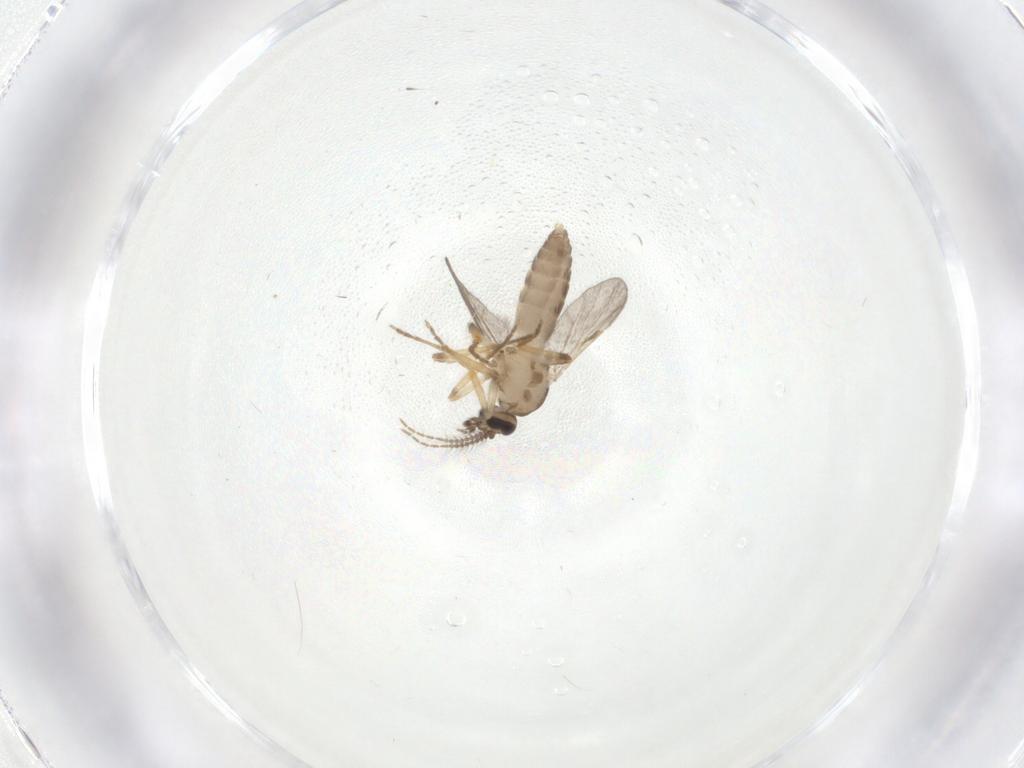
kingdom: Animalia
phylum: Arthropoda
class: Insecta
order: Diptera
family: Ceratopogonidae
